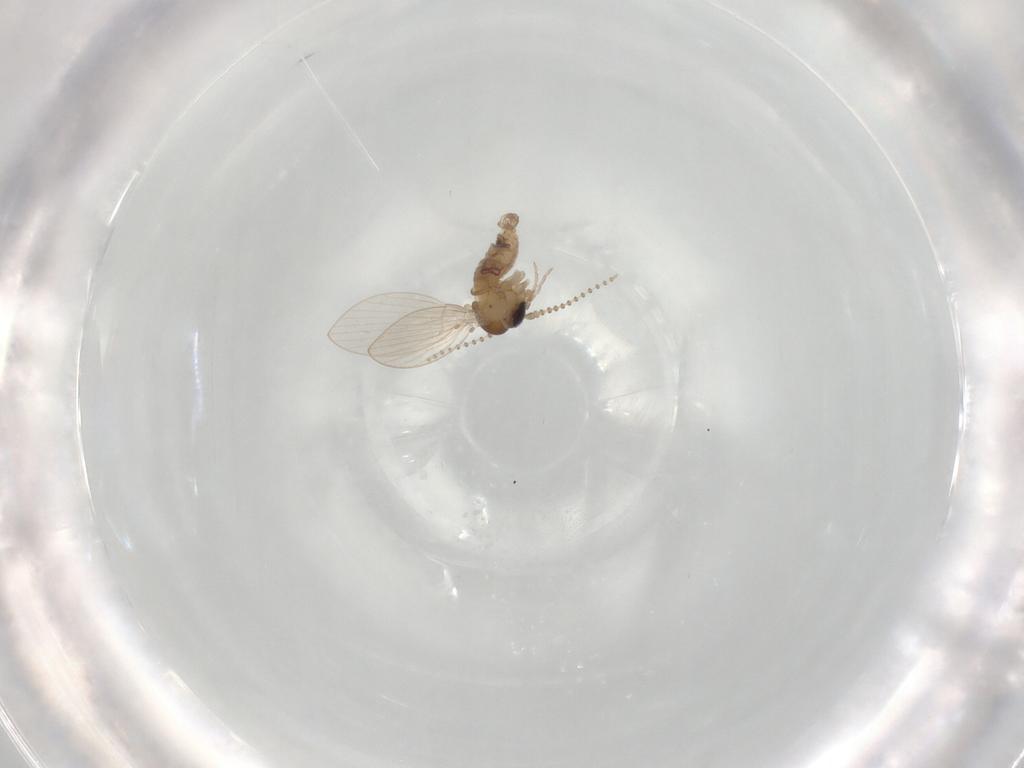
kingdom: Animalia
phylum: Arthropoda
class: Insecta
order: Diptera
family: Psychodidae
